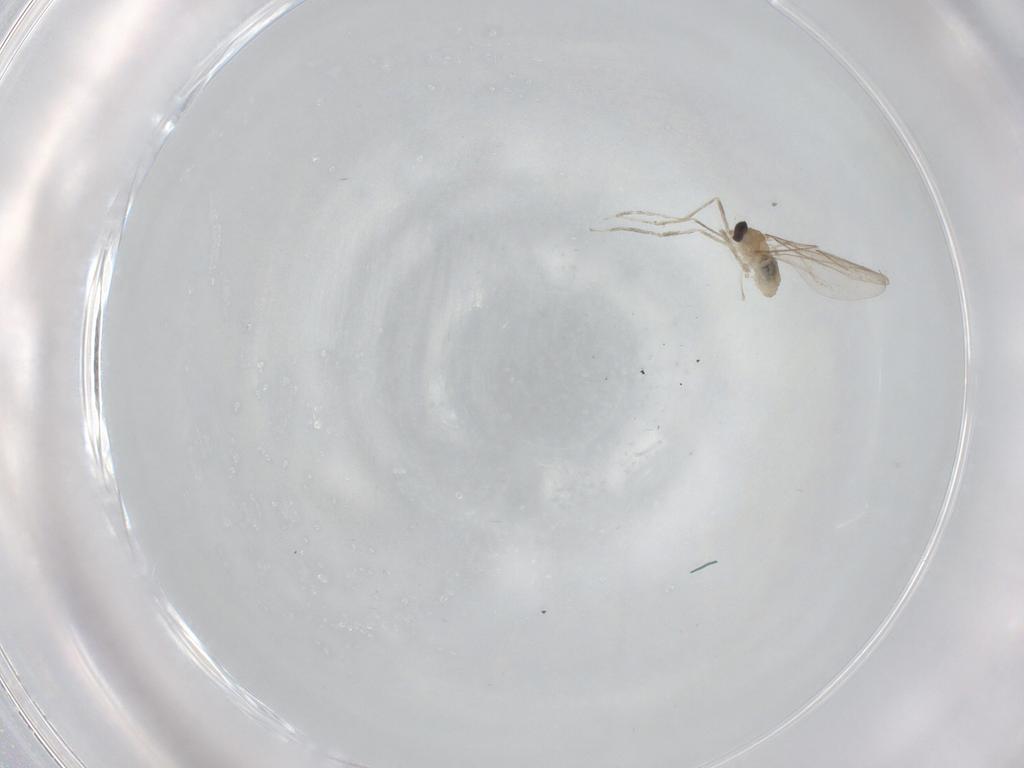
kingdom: Animalia
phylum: Arthropoda
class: Insecta
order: Diptera
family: Cecidomyiidae
